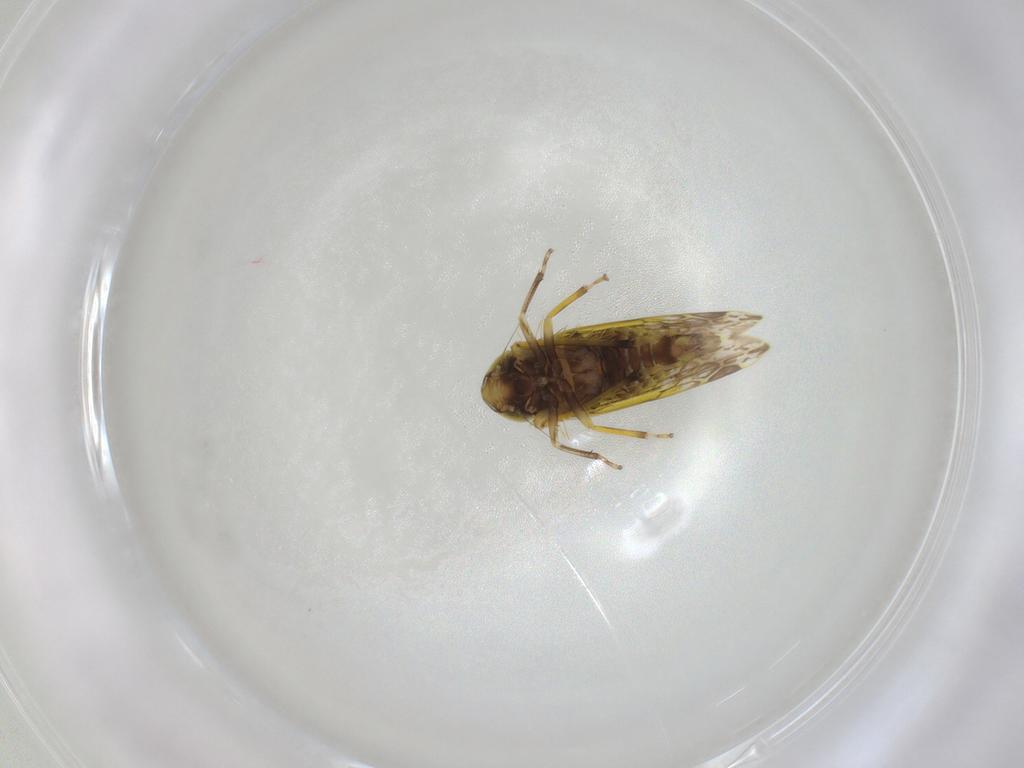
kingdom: Animalia
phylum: Arthropoda
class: Insecta
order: Hemiptera
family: Cicadellidae
